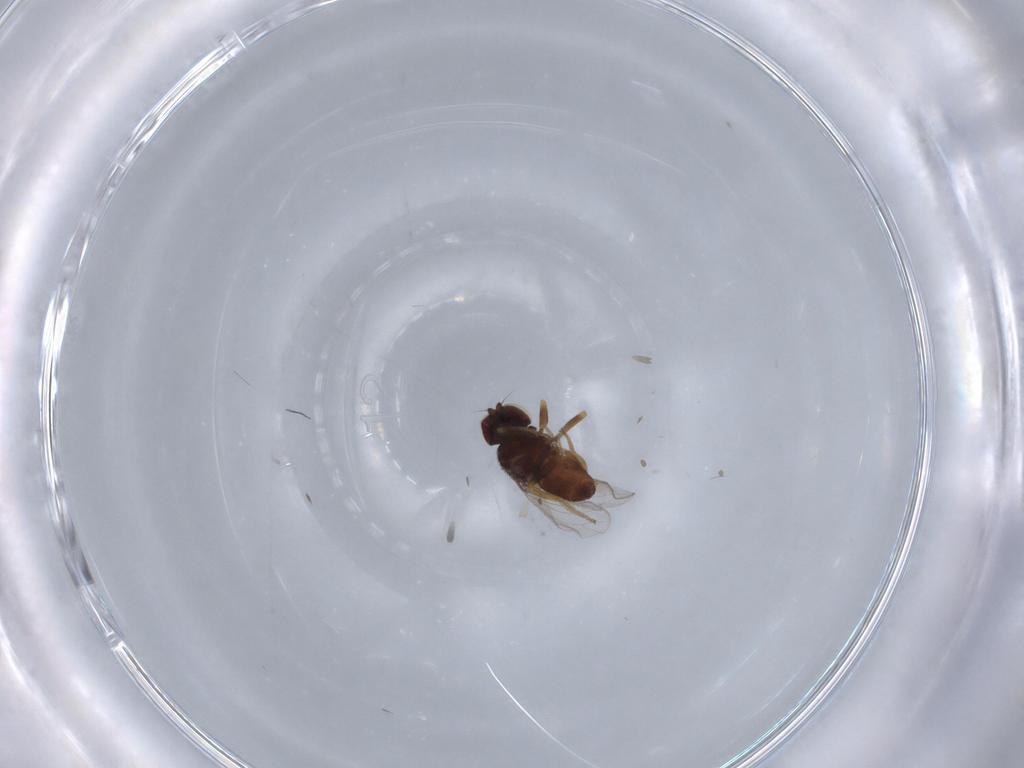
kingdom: Animalia
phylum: Arthropoda
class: Insecta
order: Diptera
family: Chloropidae
